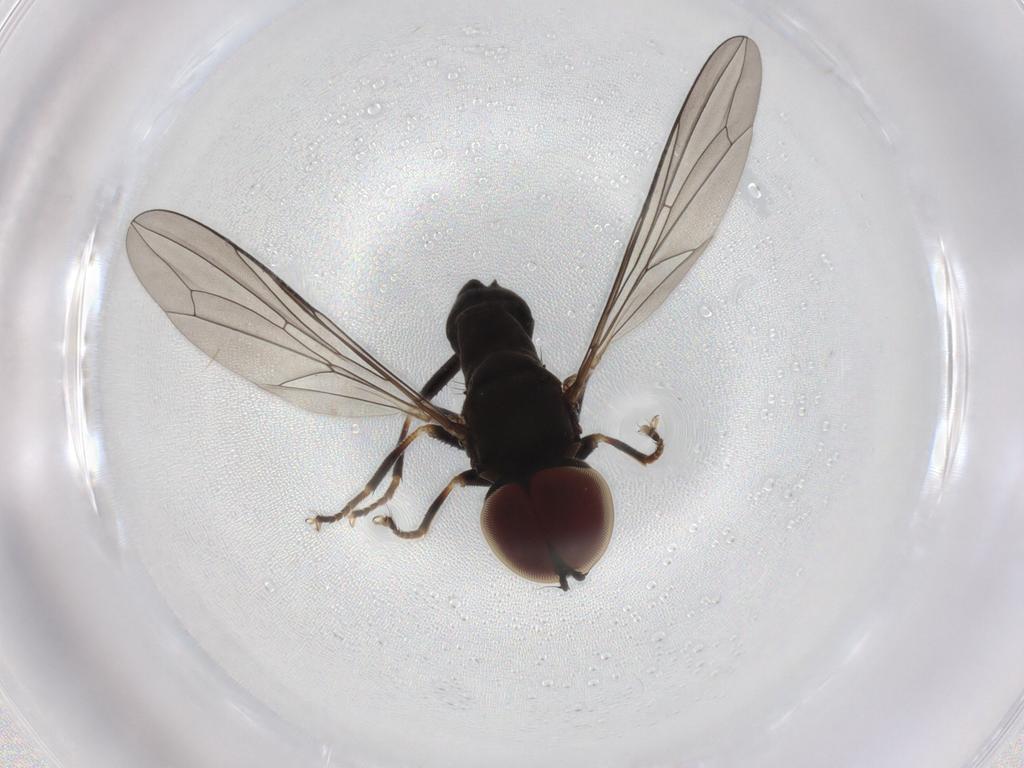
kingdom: Animalia
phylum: Arthropoda
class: Insecta
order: Diptera
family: Pipunculidae
